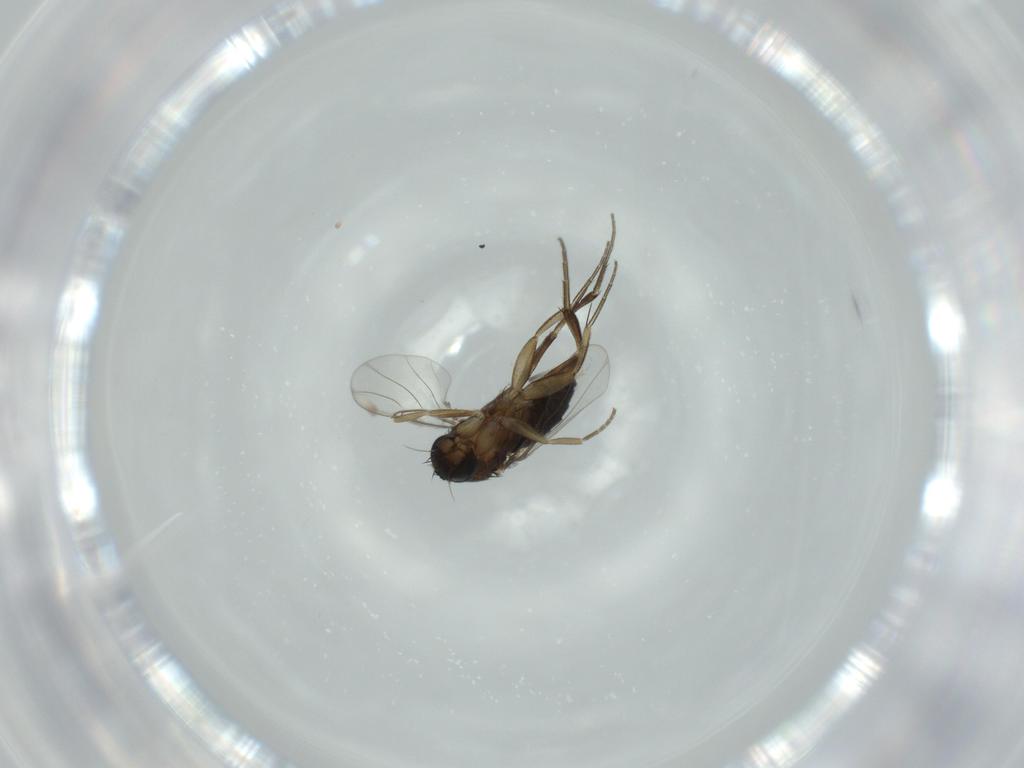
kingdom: Animalia
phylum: Arthropoda
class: Insecta
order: Diptera
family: Phoridae
